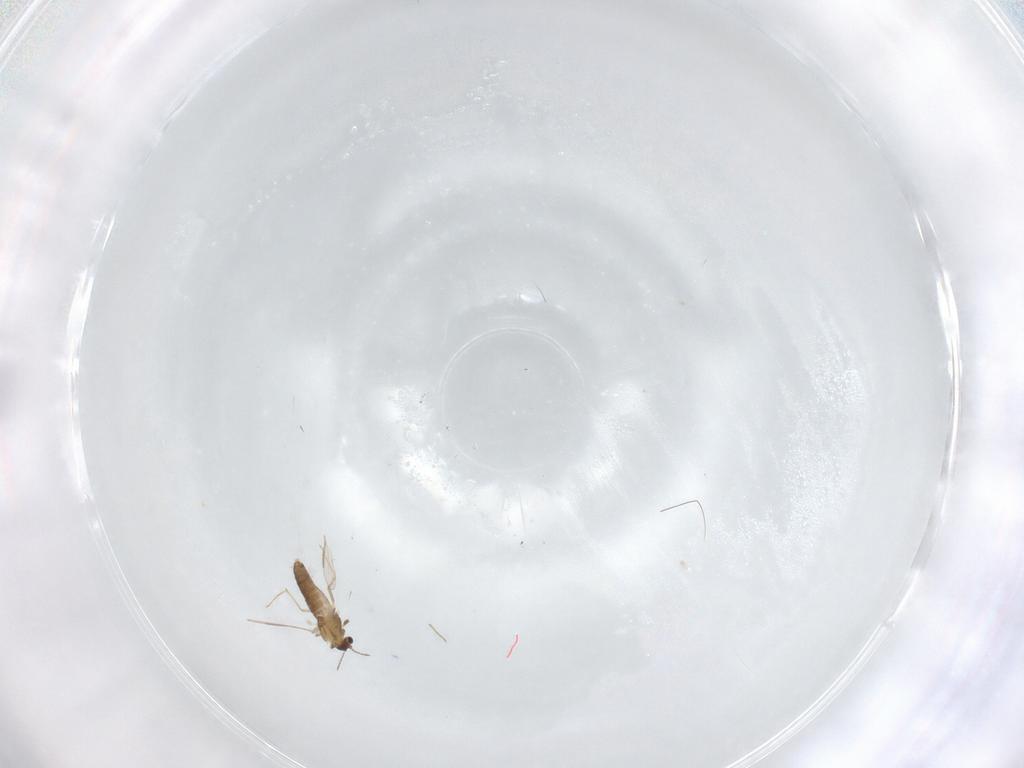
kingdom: Animalia
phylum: Arthropoda
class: Insecta
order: Diptera
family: Chironomidae
